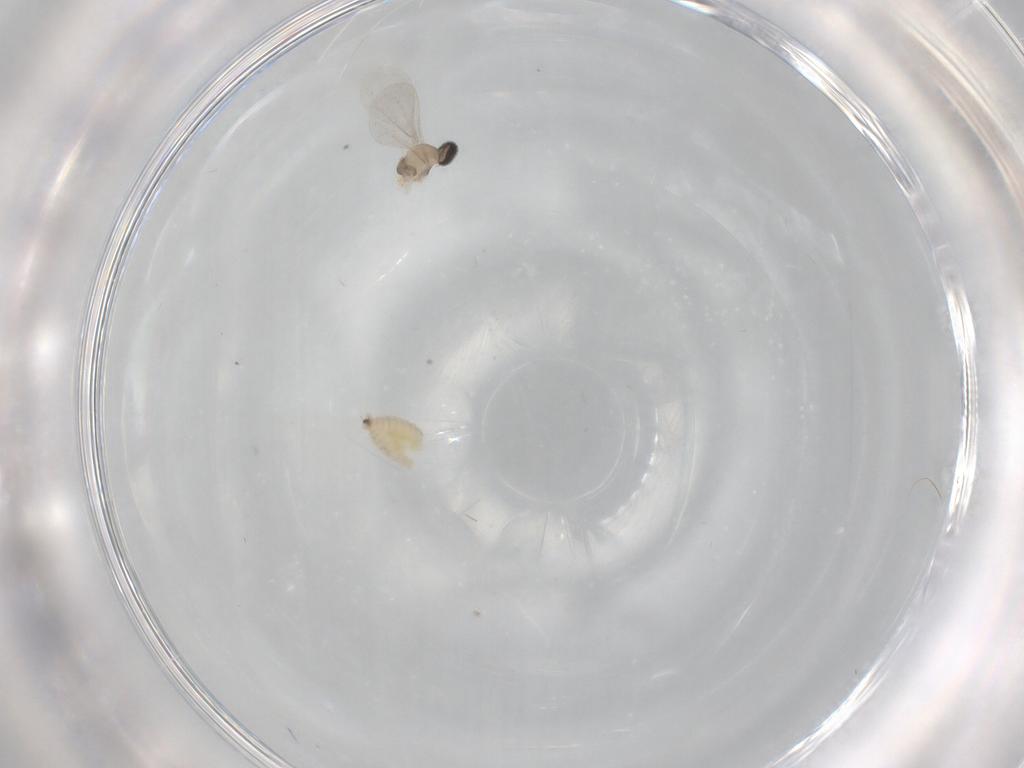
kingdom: Animalia
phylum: Arthropoda
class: Insecta
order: Diptera
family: Cecidomyiidae
